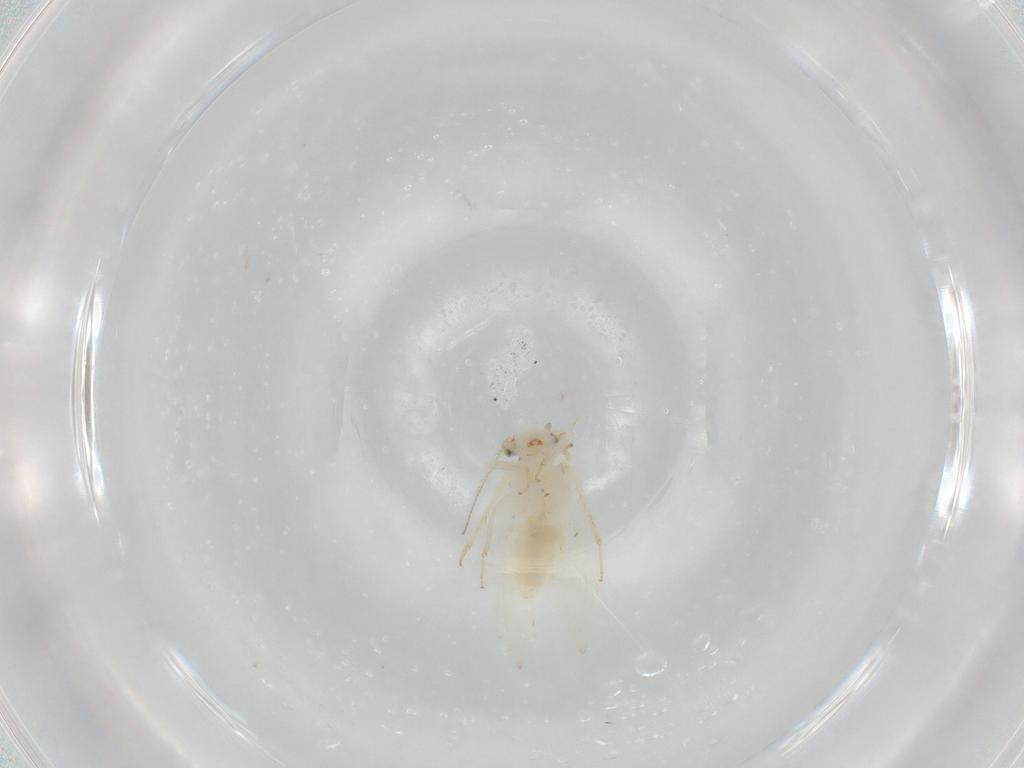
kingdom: Animalia
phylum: Arthropoda
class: Insecta
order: Psocodea
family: Lepidopsocidae
